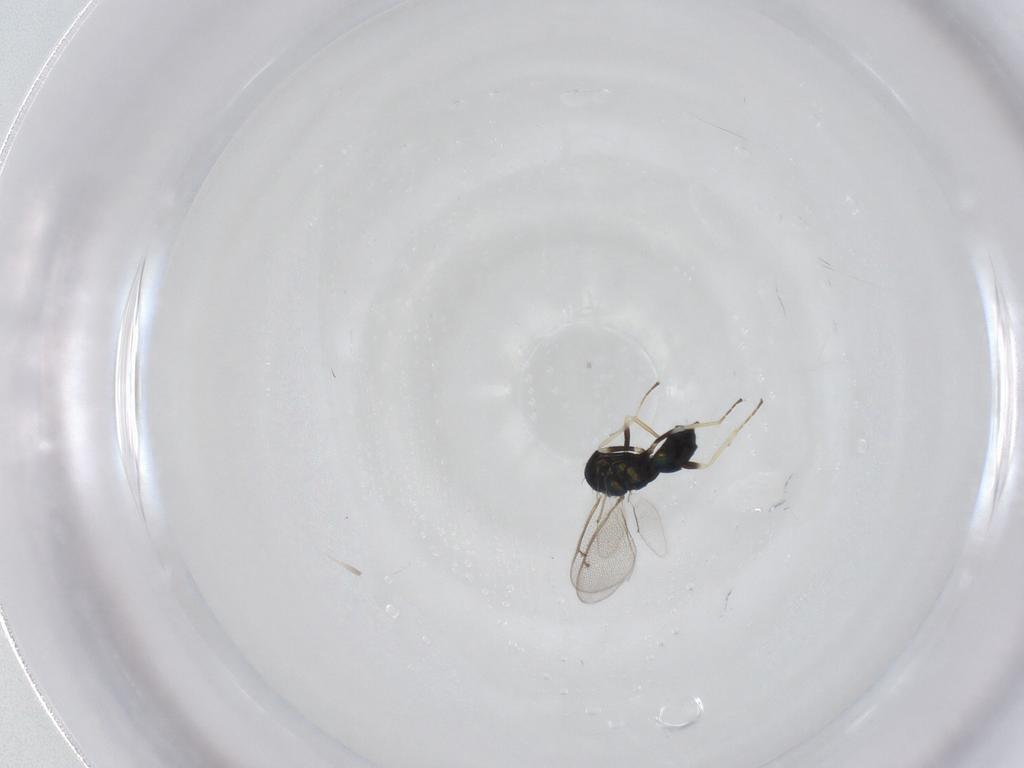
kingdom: Animalia
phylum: Arthropoda
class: Insecta
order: Hymenoptera
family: Eulophidae
